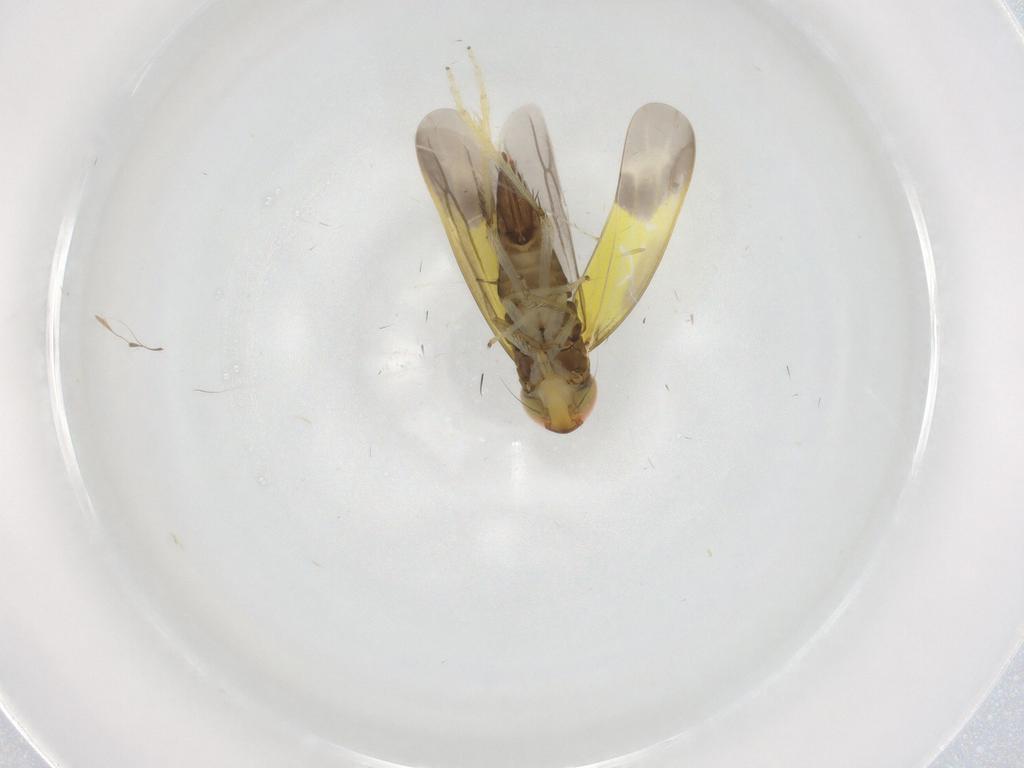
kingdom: Animalia
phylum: Arthropoda
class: Insecta
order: Hemiptera
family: Cicadellidae
